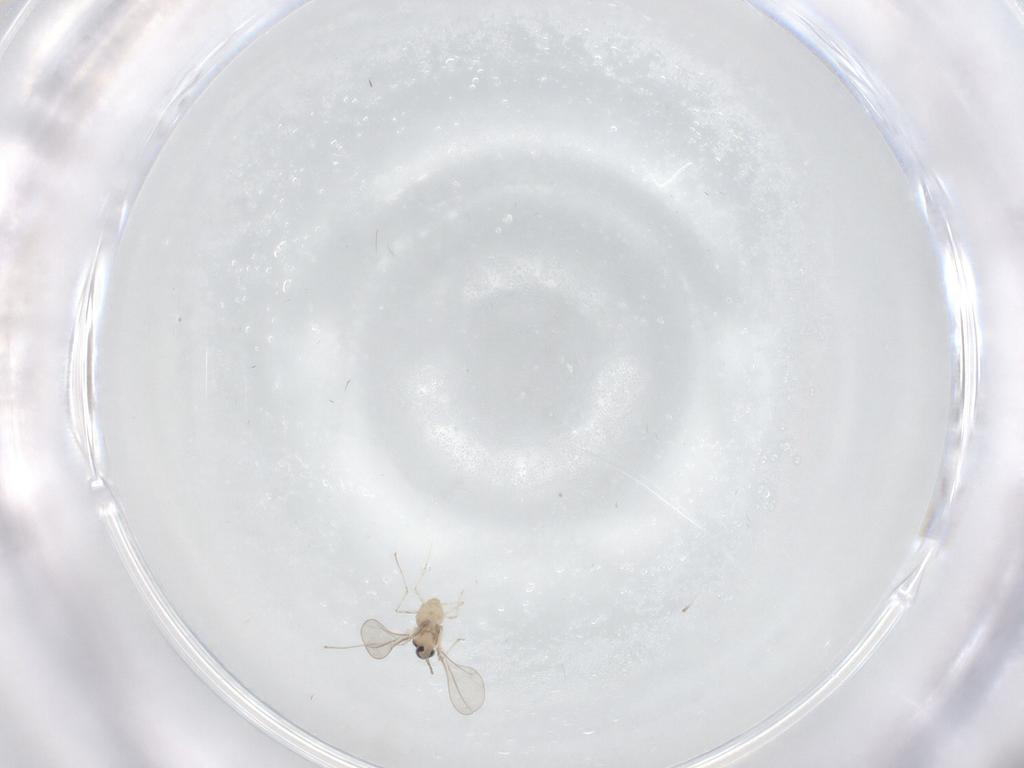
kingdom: Animalia
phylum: Arthropoda
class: Insecta
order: Diptera
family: Cecidomyiidae
